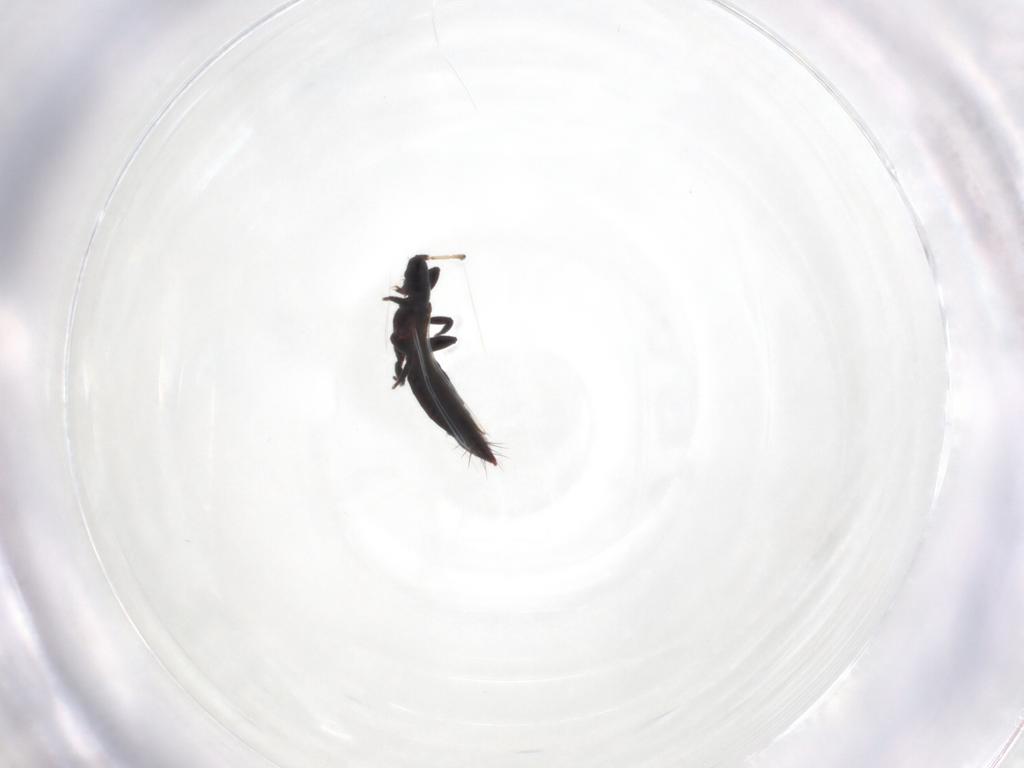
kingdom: Animalia
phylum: Arthropoda
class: Insecta
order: Thysanoptera
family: Aeolothripidae
